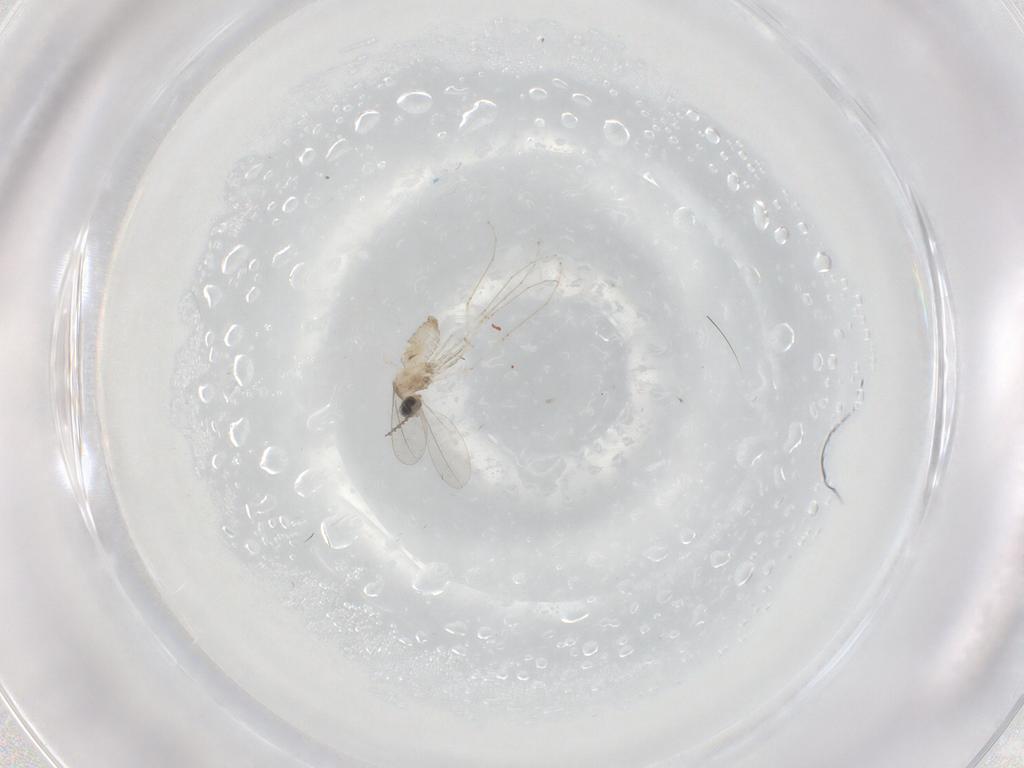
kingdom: Animalia
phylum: Arthropoda
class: Insecta
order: Diptera
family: Cecidomyiidae
